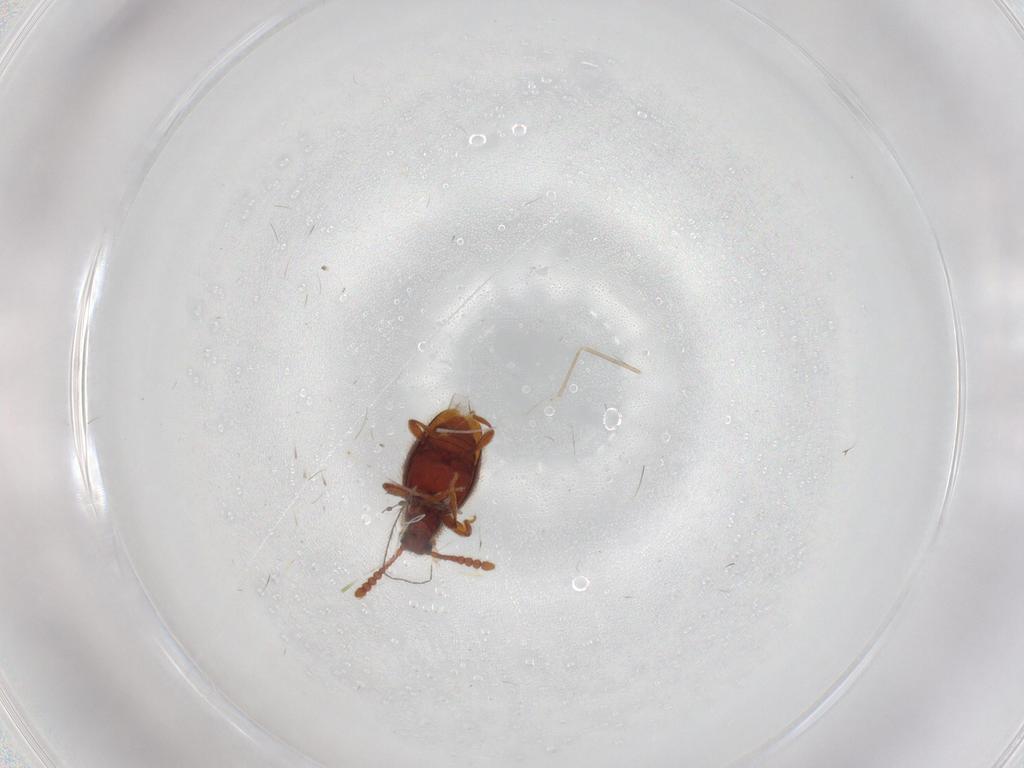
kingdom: Animalia
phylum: Arthropoda
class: Insecta
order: Coleoptera
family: Staphylinidae
